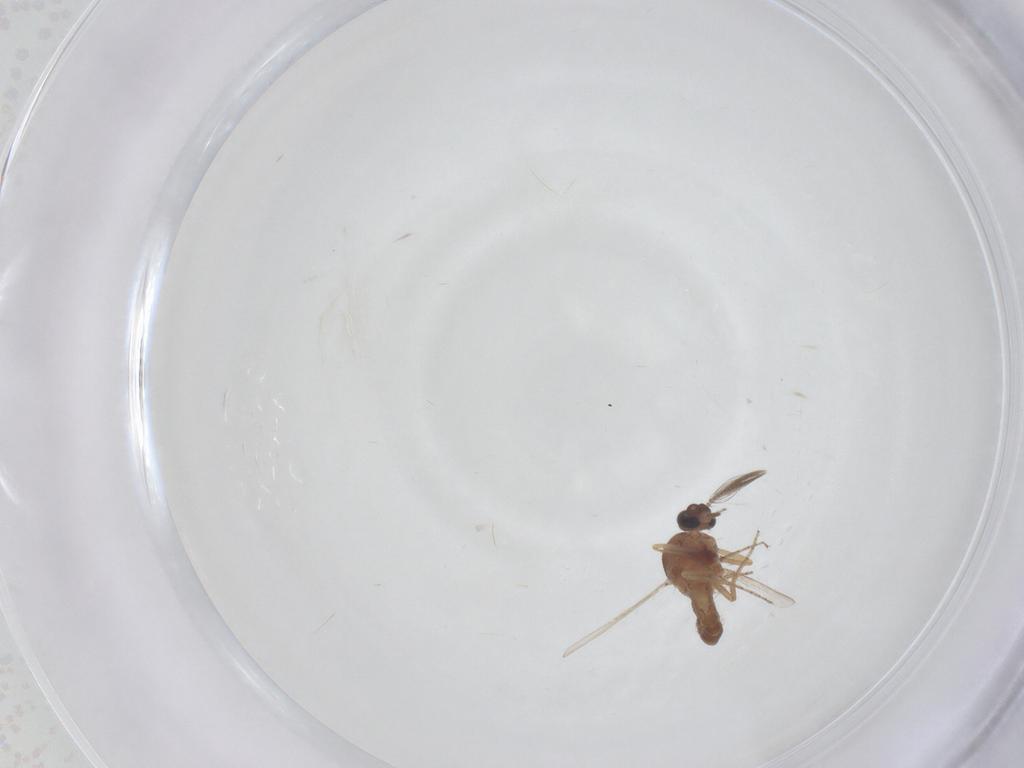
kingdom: Animalia
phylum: Arthropoda
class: Insecta
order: Diptera
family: Ceratopogonidae
